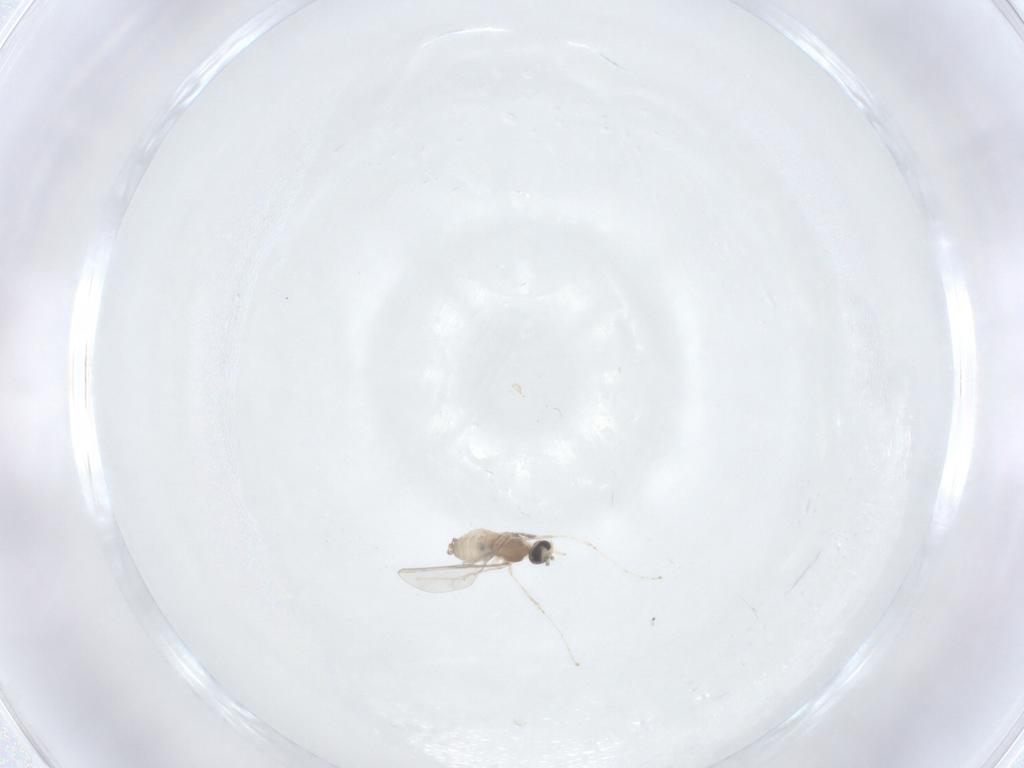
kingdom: Animalia
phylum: Arthropoda
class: Insecta
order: Diptera
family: Cecidomyiidae
